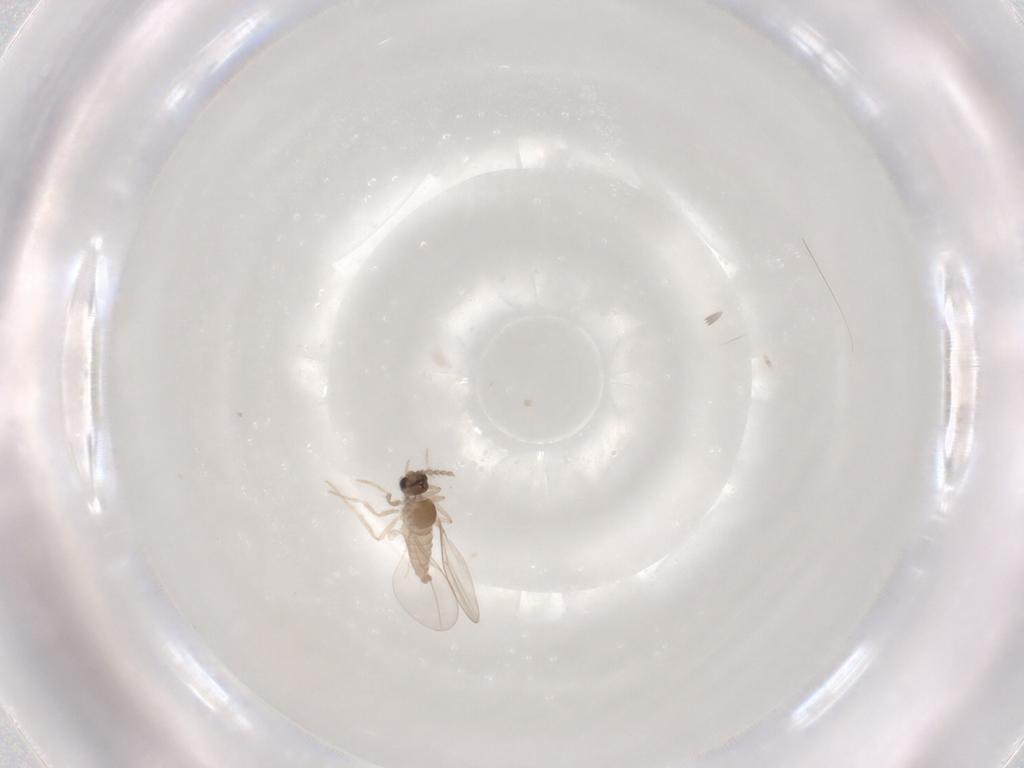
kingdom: Animalia
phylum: Arthropoda
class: Insecta
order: Diptera
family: Cecidomyiidae
